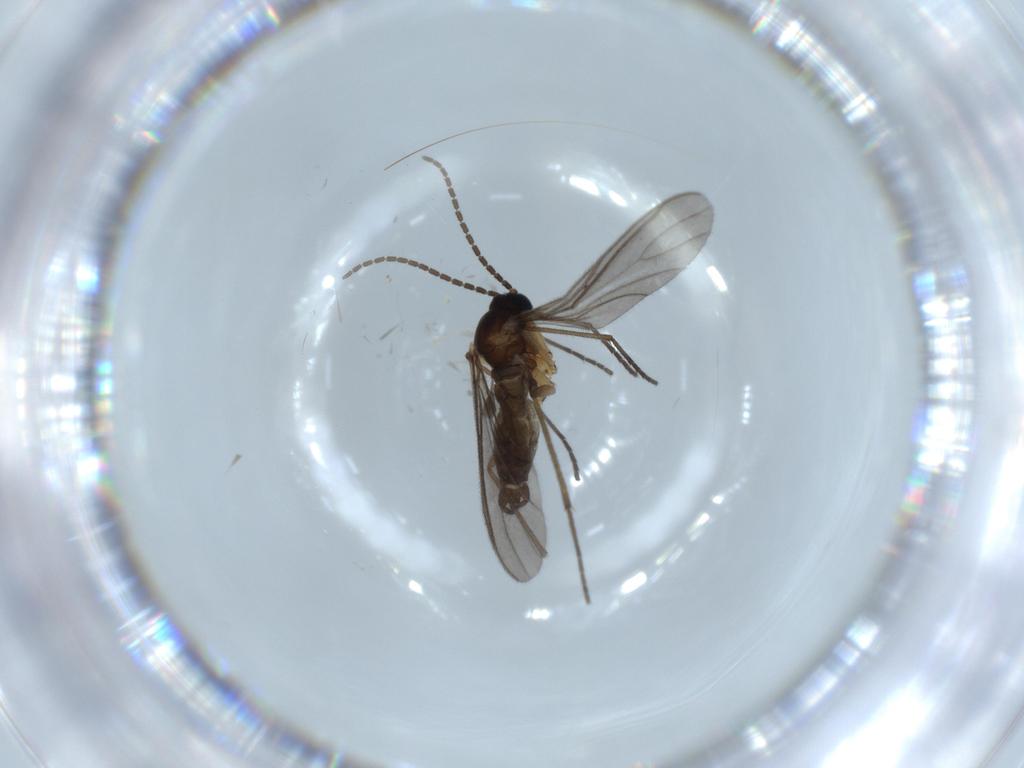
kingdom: Animalia
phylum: Arthropoda
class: Insecta
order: Diptera
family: Sciaridae
